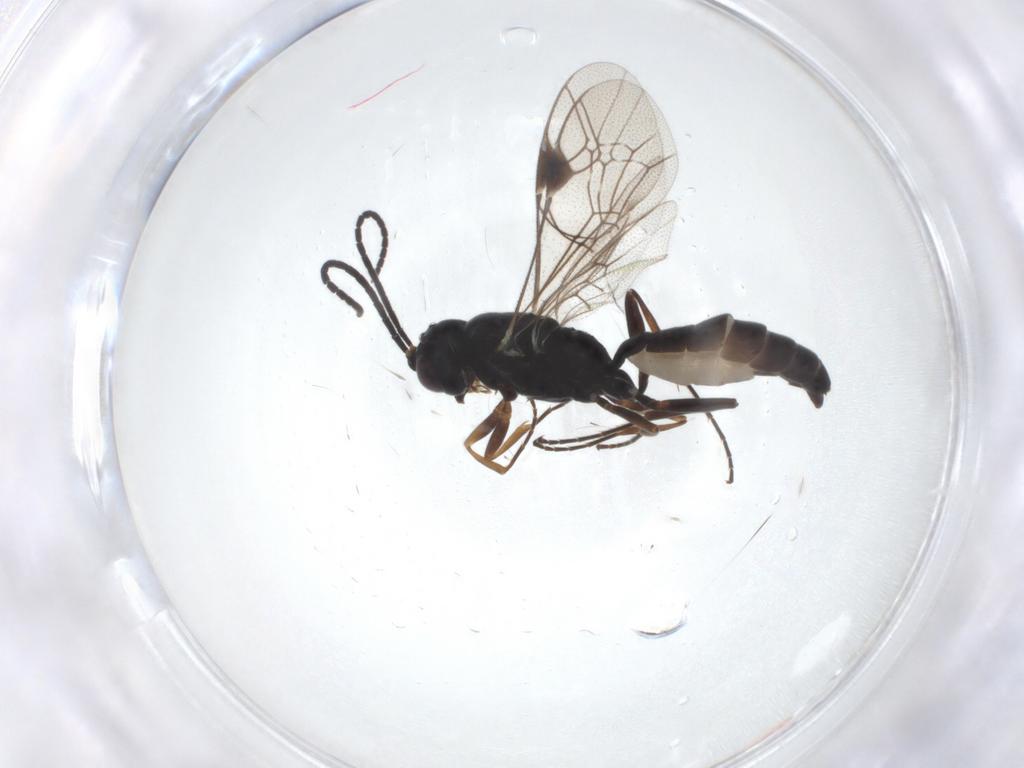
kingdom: Animalia
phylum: Arthropoda
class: Insecta
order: Hymenoptera
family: Ichneumonidae
